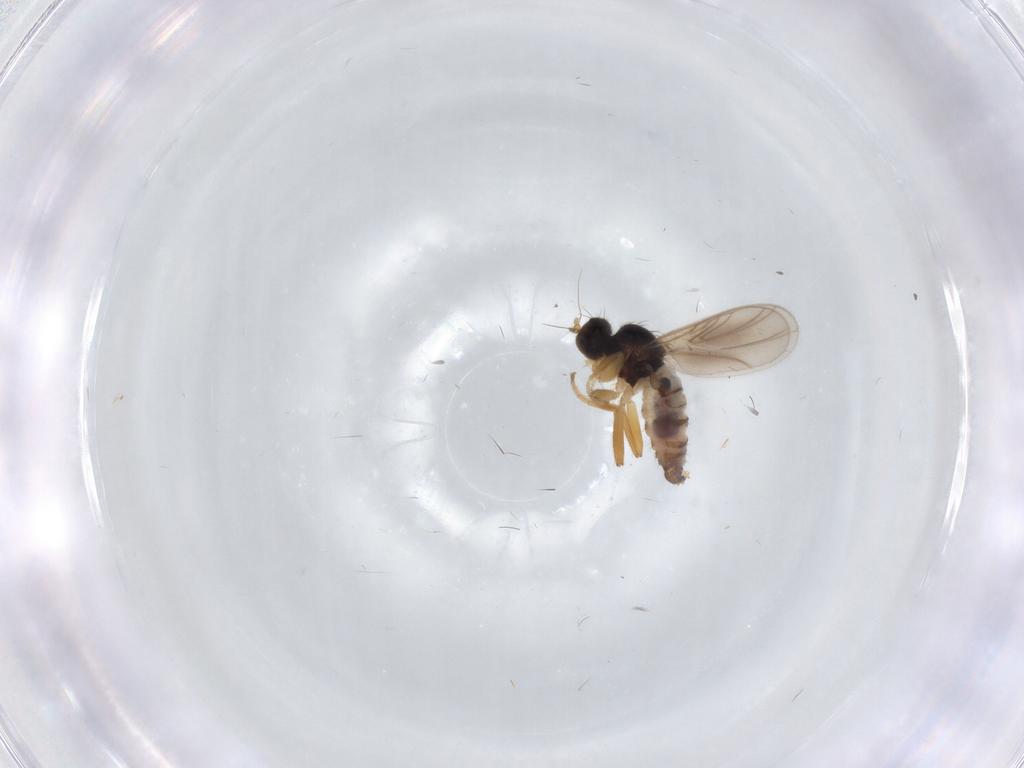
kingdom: Animalia
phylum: Arthropoda
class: Insecta
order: Diptera
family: Hybotidae
